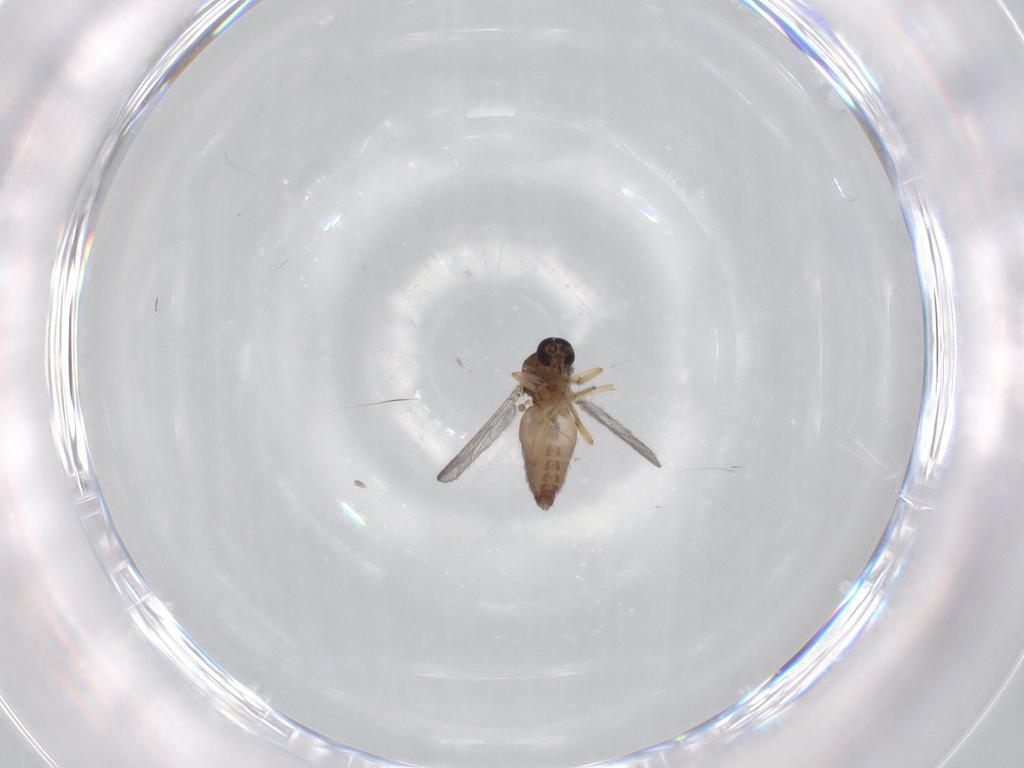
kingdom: Animalia
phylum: Arthropoda
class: Insecta
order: Diptera
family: Ceratopogonidae
